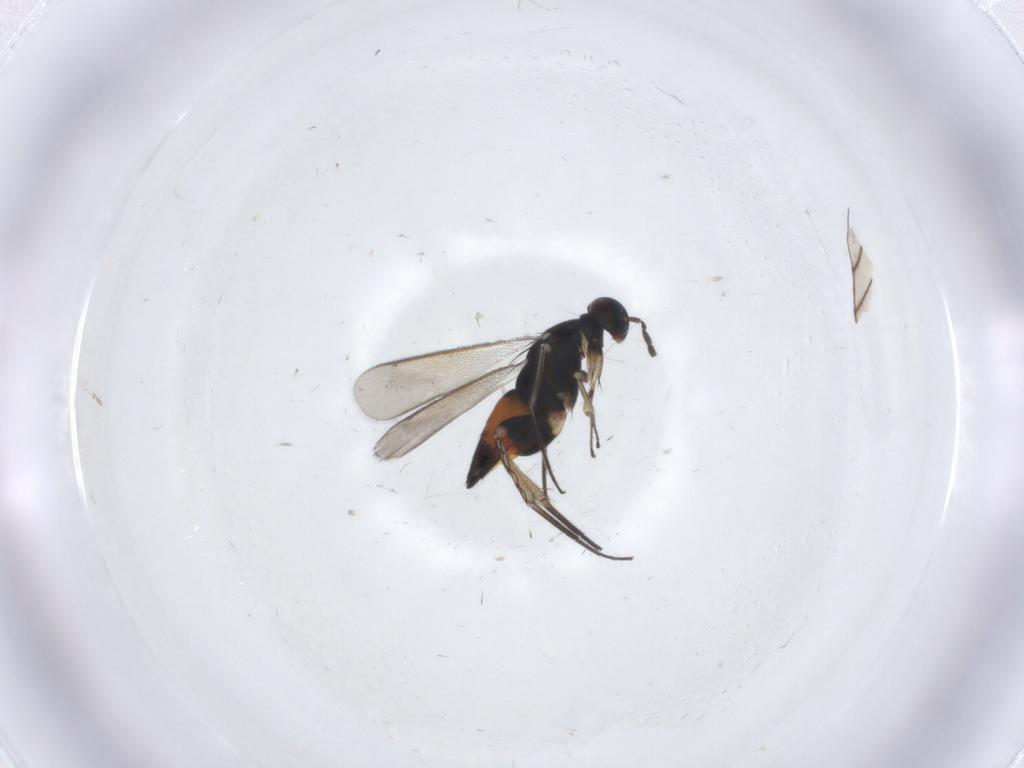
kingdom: Animalia
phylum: Arthropoda
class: Insecta
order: Hymenoptera
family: Eulophidae
